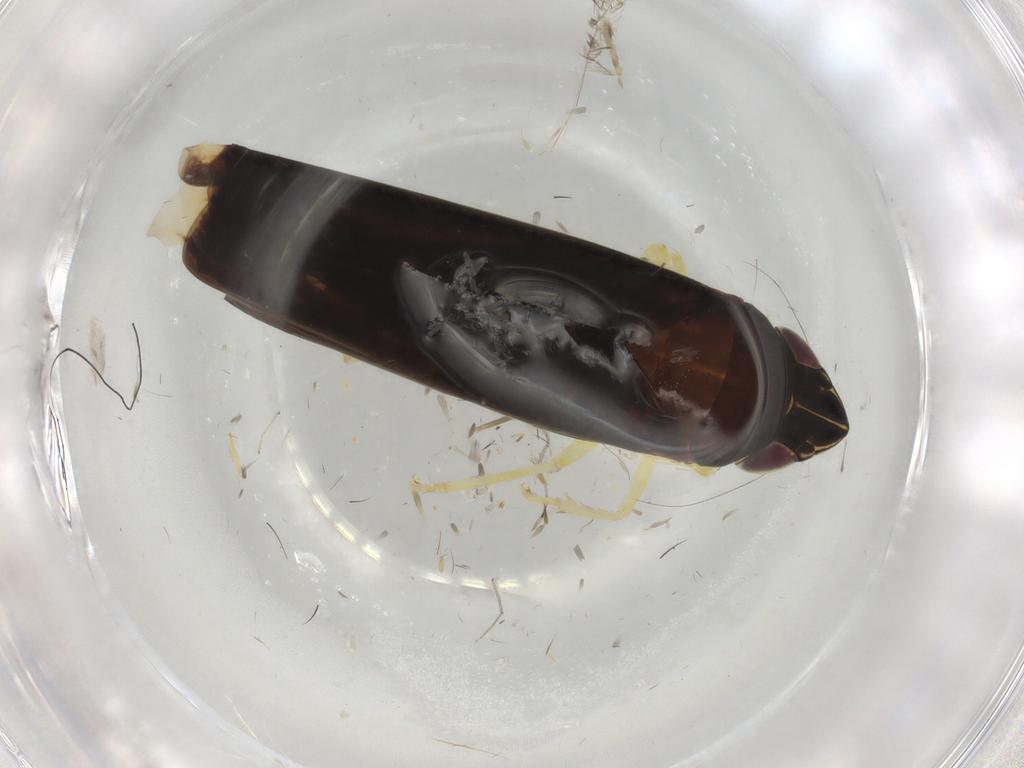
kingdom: Animalia
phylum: Arthropoda
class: Insecta
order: Hemiptera
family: Cicadellidae
